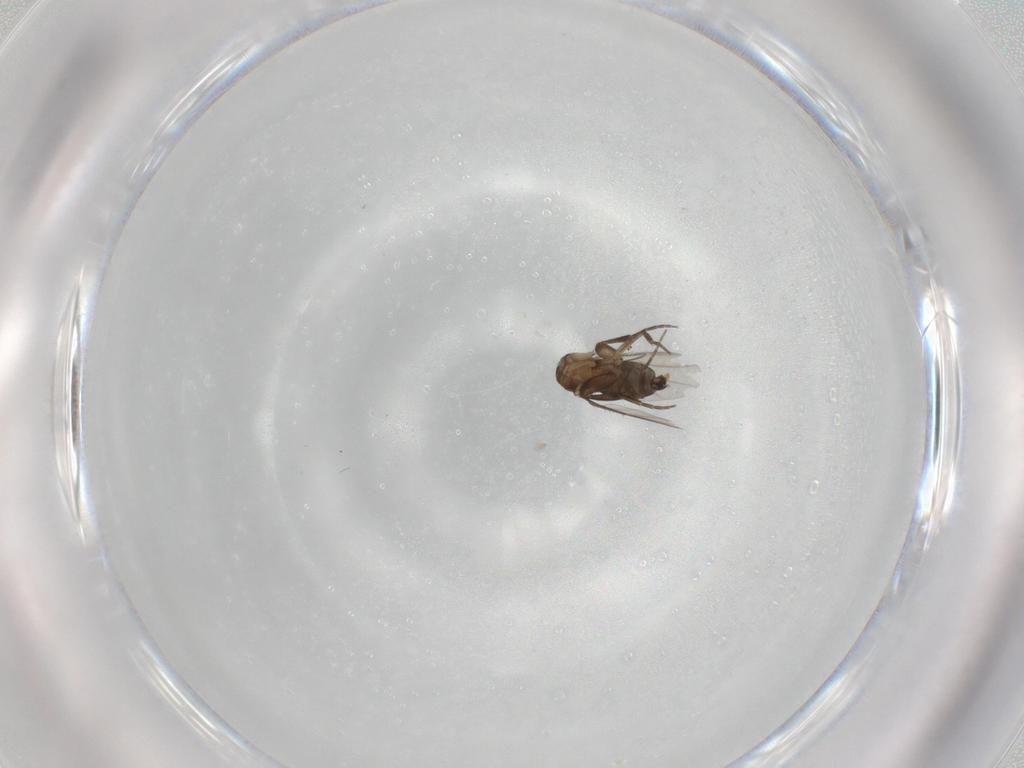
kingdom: Animalia
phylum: Arthropoda
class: Insecta
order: Diptera
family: Phoridae
